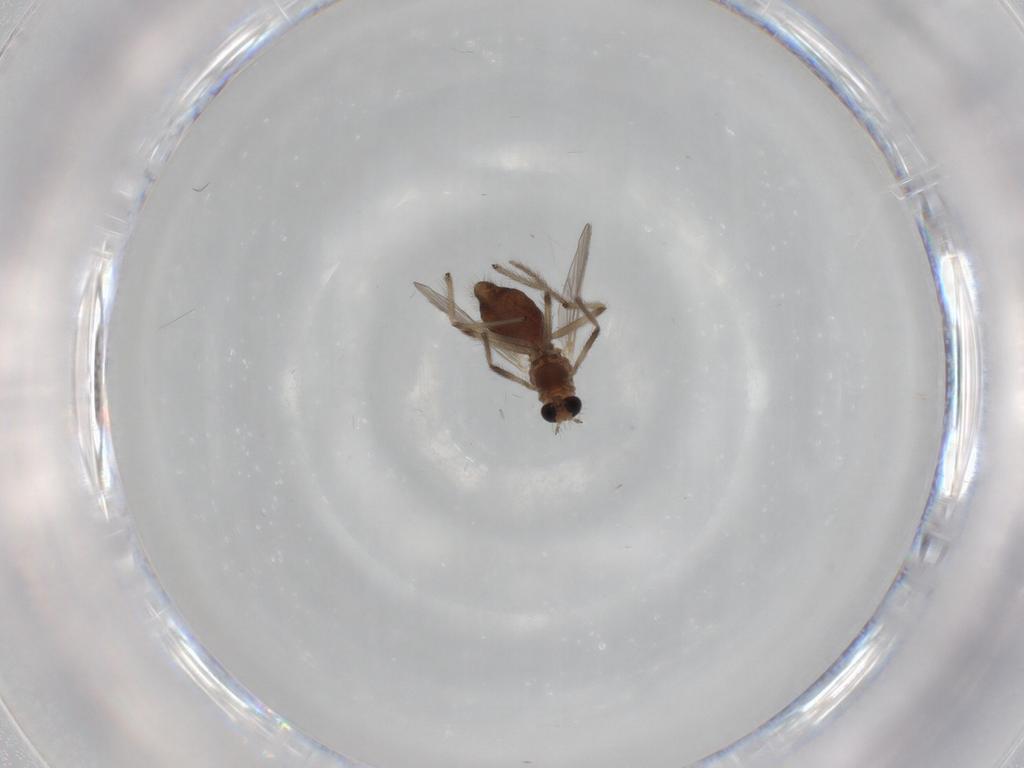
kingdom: Animalia
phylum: Arthropoda
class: Insecta
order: Diptera
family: Chironomidae
